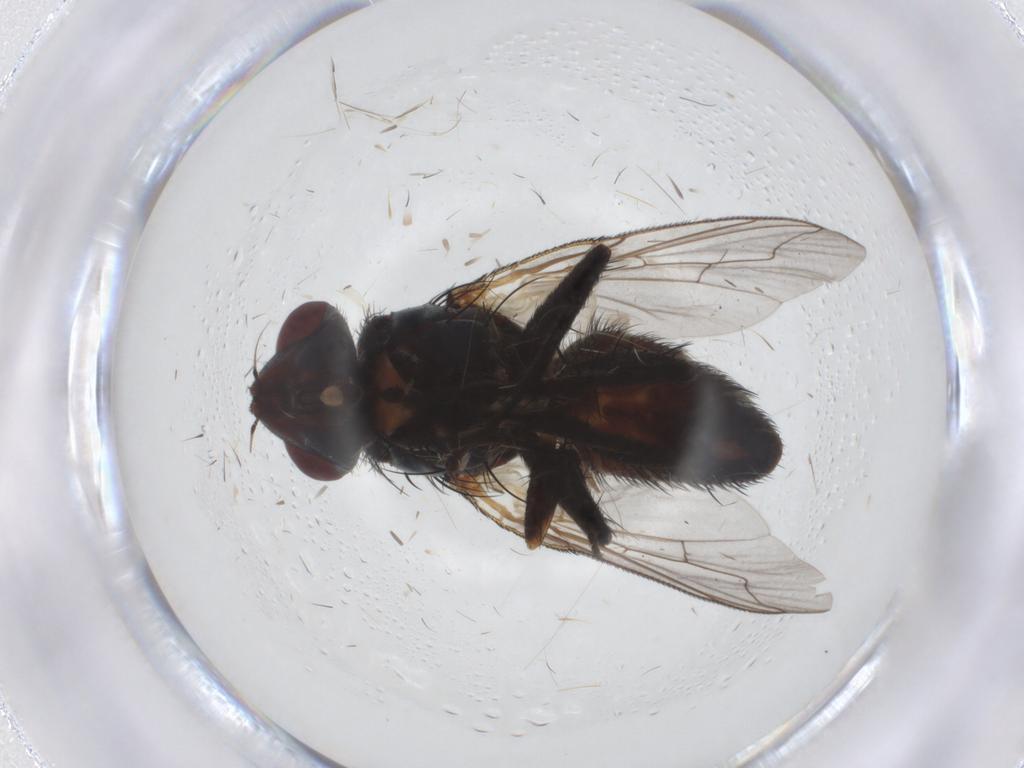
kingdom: Animalia
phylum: Arthropoda
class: Insecta
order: Diptera
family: Sarcophagidae
